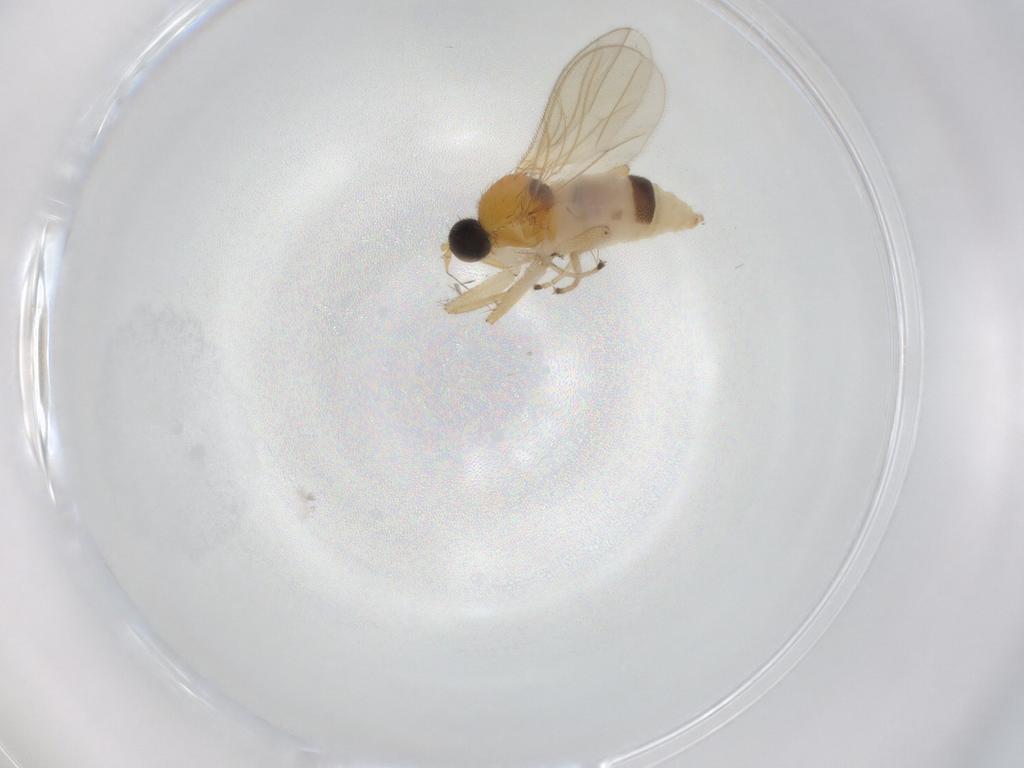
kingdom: Animalia
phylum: Arthropoda
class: Insecta
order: Diptera
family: Hybotidae
